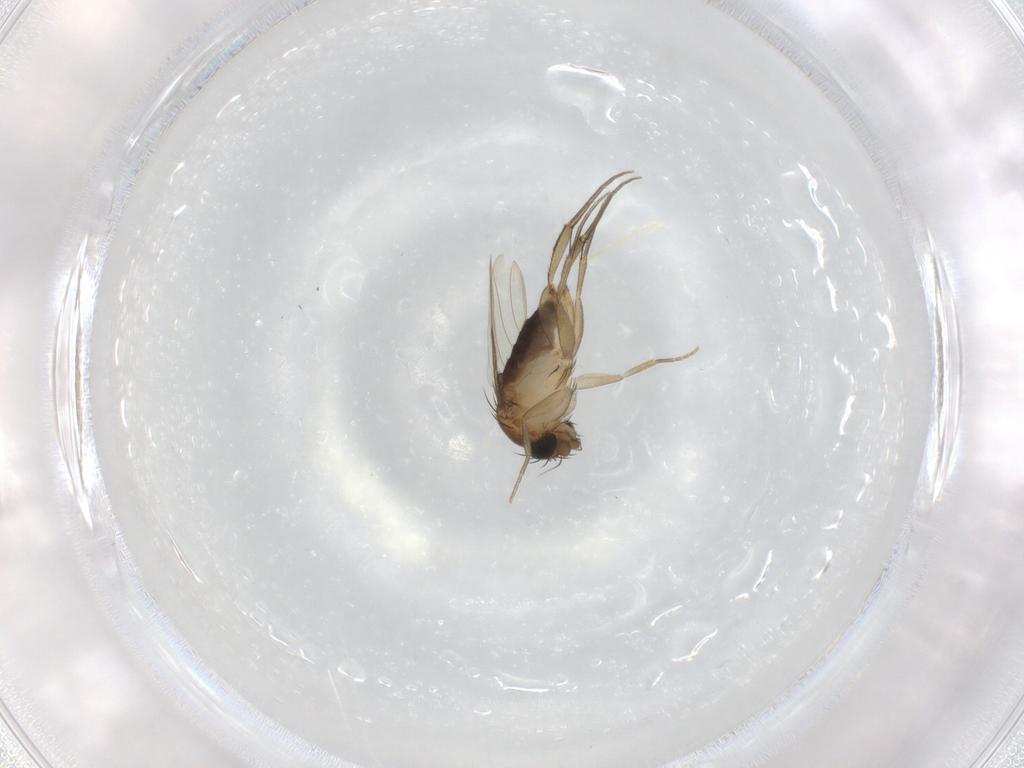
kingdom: Animalia
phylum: Arthropoda
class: Insecta
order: Diptera
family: Phoridae
